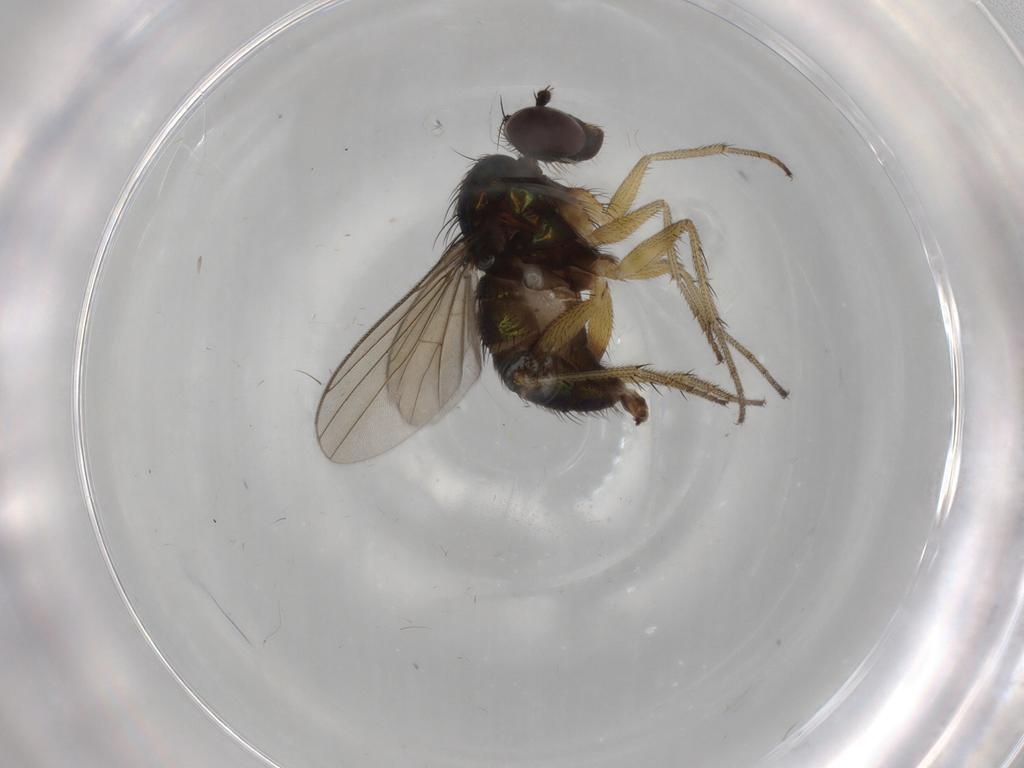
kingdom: Animalia
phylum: Arthropoda
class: Insecta
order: Diptera
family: Dolichopodidae
